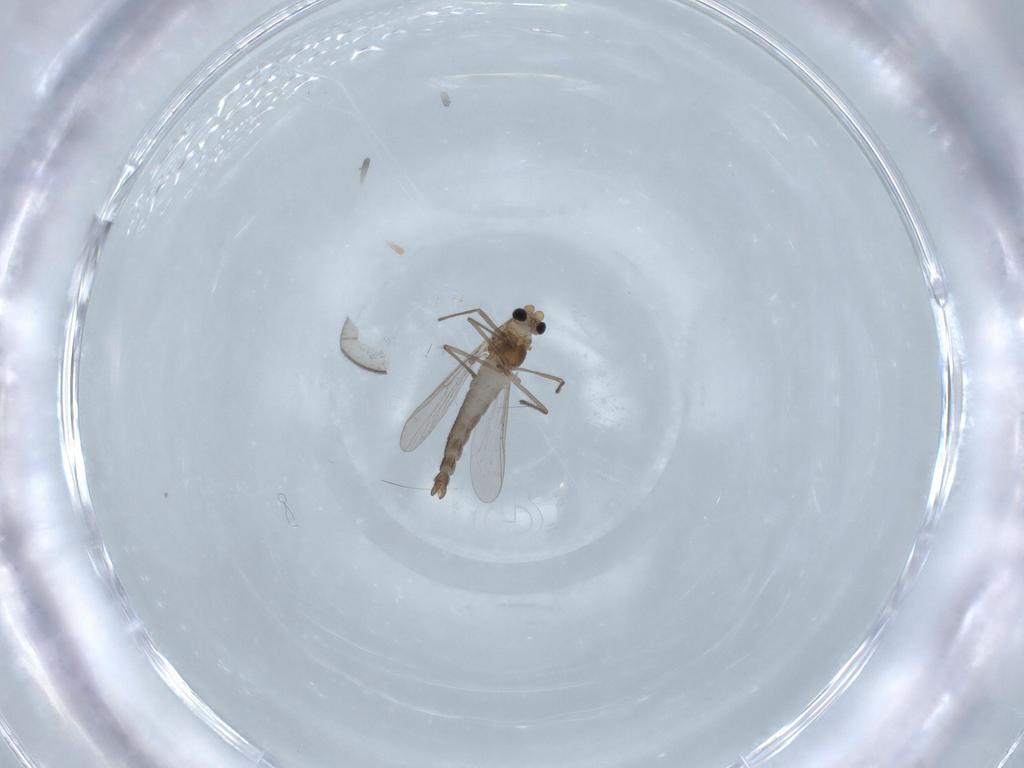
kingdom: Animalia
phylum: Arthropoda
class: Insecta
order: Diptera
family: Chironomidae
